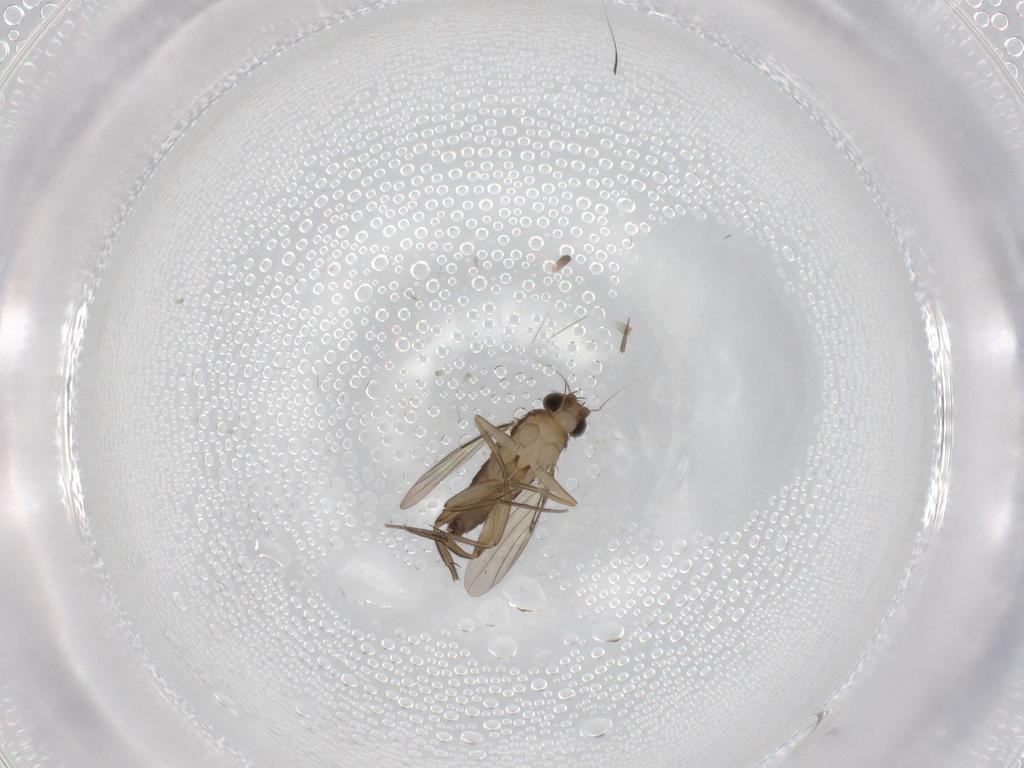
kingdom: Animalia
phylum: Arthropoda
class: Insecta
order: Diptera
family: Phoridae
